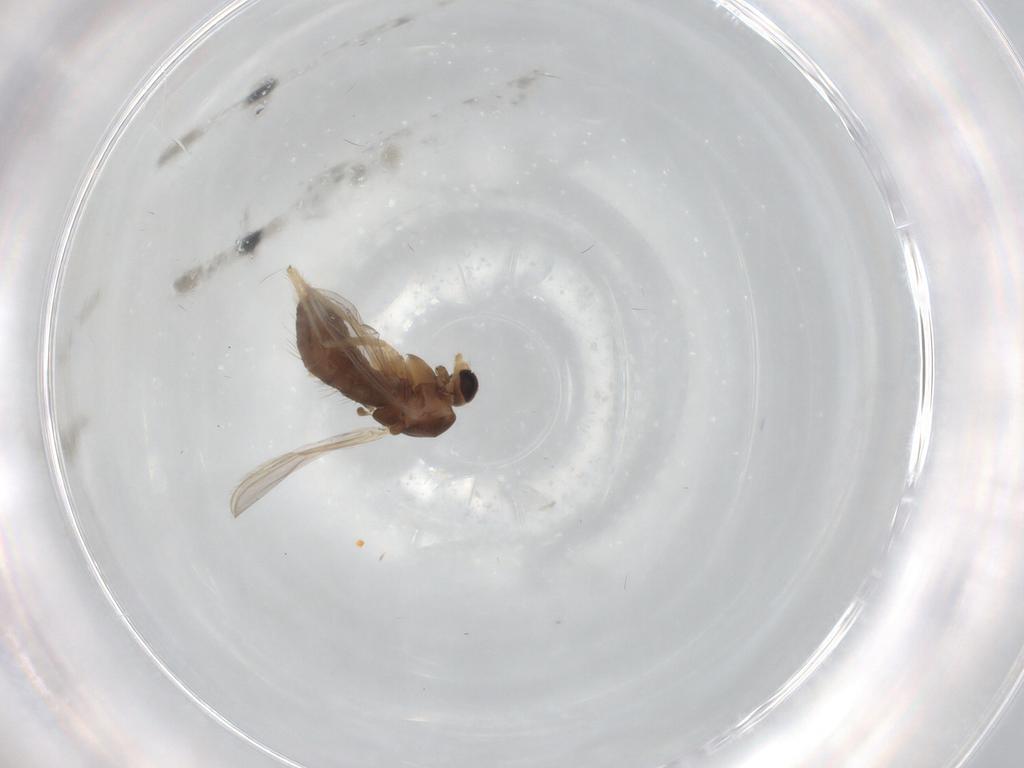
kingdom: Animalia
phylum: Arthropoda
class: Insecta
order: Diptera
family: Chironomidae
